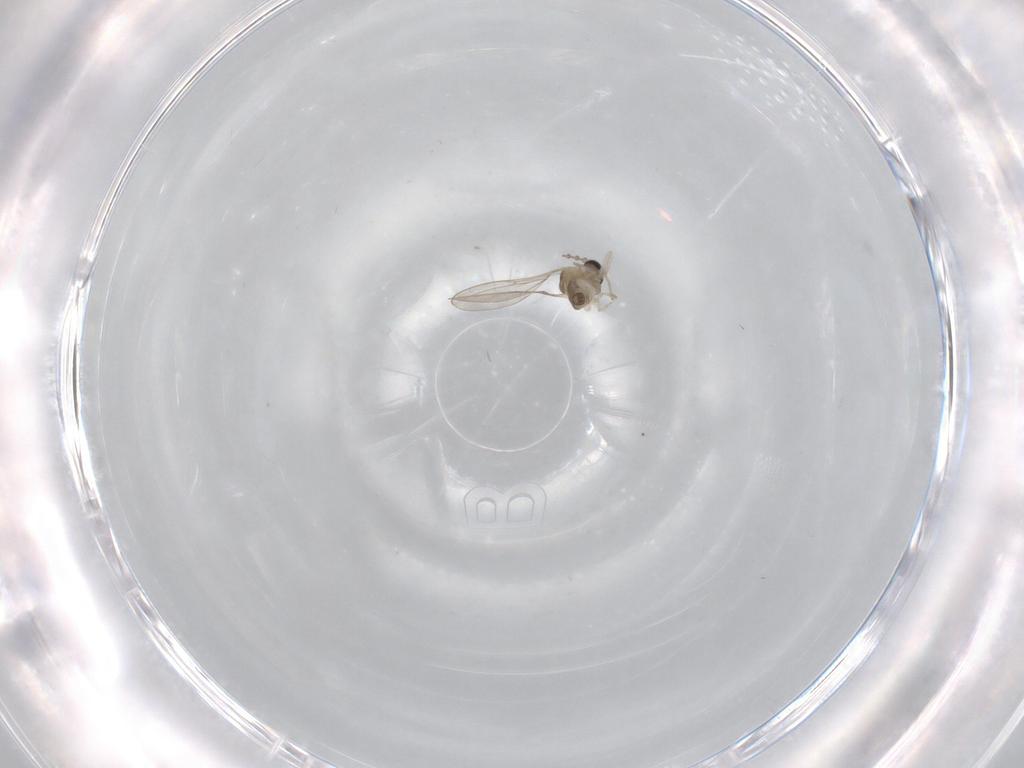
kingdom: Animalia
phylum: Arthropoda
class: Insecta
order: Diptera
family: Cecidomyiidae
